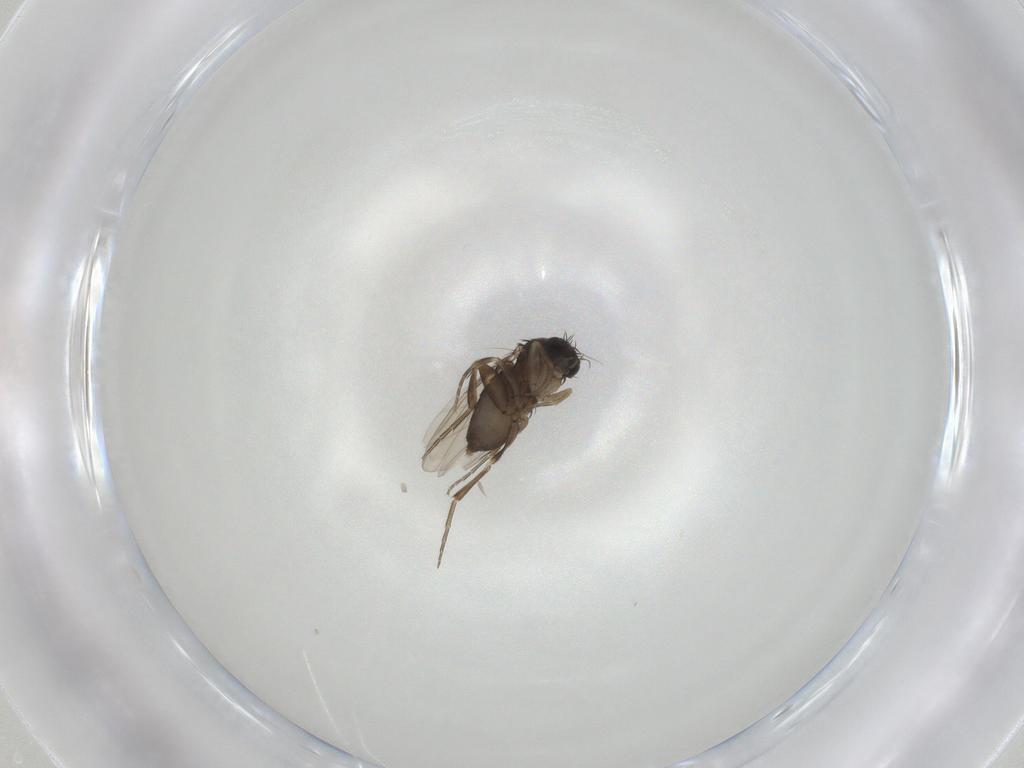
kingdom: Animalia
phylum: Arthropoda
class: Insecta
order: Diptera
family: Phoridae
